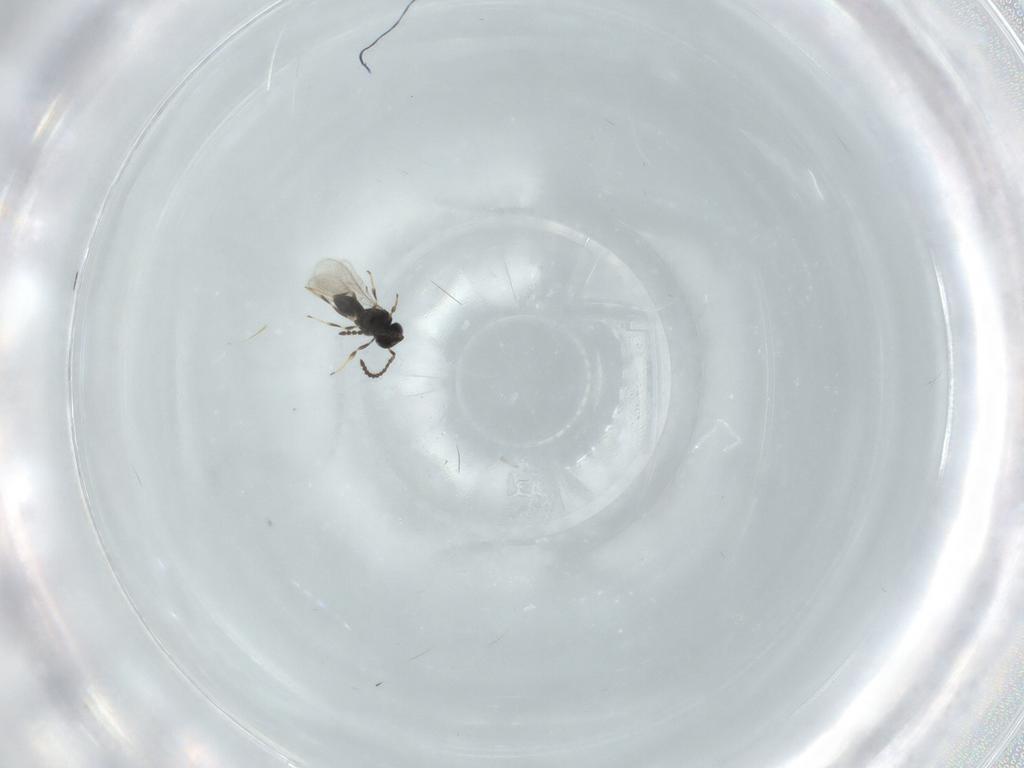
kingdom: Animalia
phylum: Arthropoda
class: Insecta
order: Hymenoptera
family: Scelionidae
